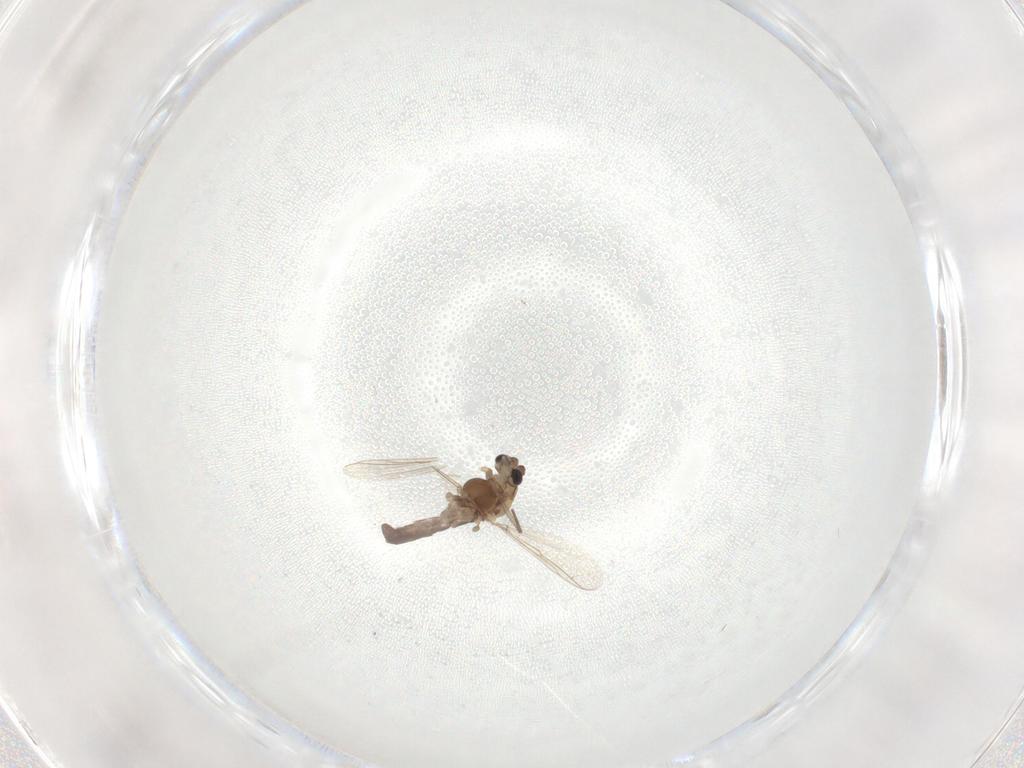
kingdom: Animalia
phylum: Arthropoda
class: Insecta
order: Diptera
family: Chironomidae
